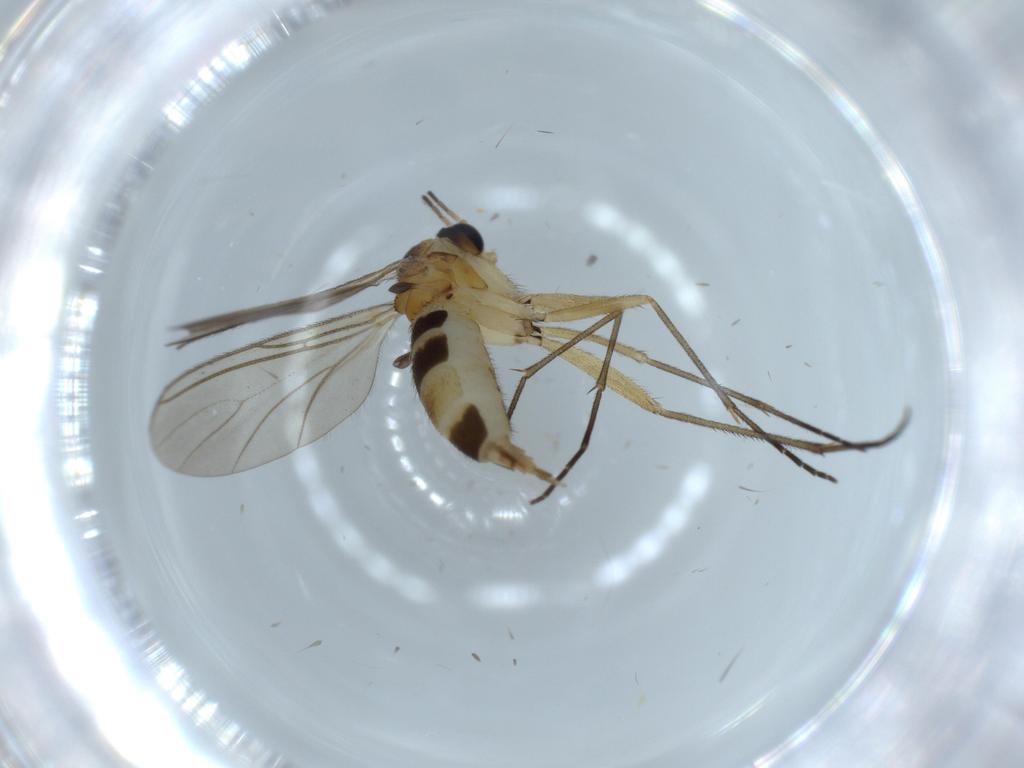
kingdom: Animalia
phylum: Arthropoda
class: Insecta
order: Diptera
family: Sciaridae
